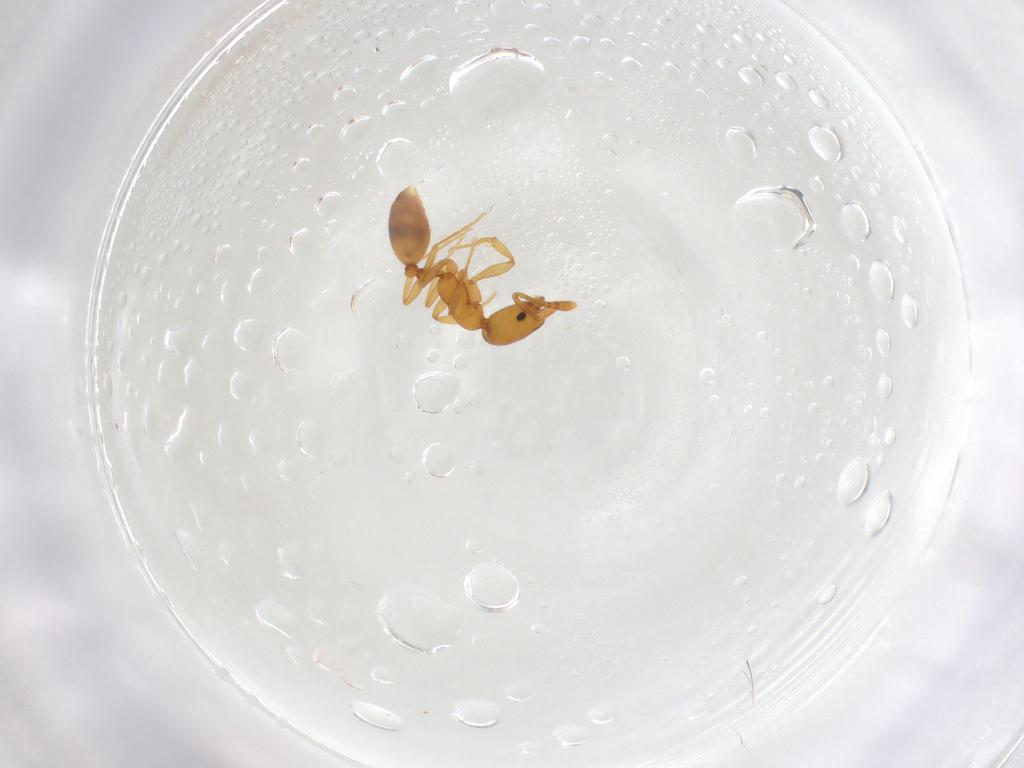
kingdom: Animalia
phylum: Arthropoda
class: Insecta
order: Hymenoptera
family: Formicidae
